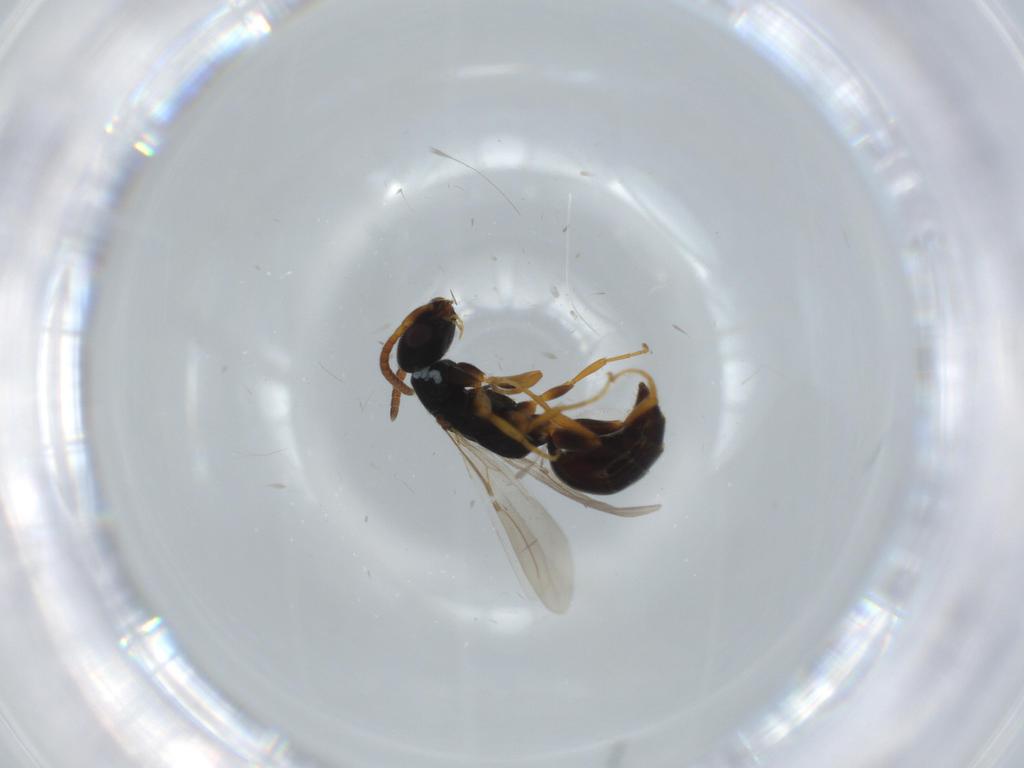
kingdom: Animalia
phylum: Arthropoda
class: Insecta
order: Hymenoptera
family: Bethylidae
